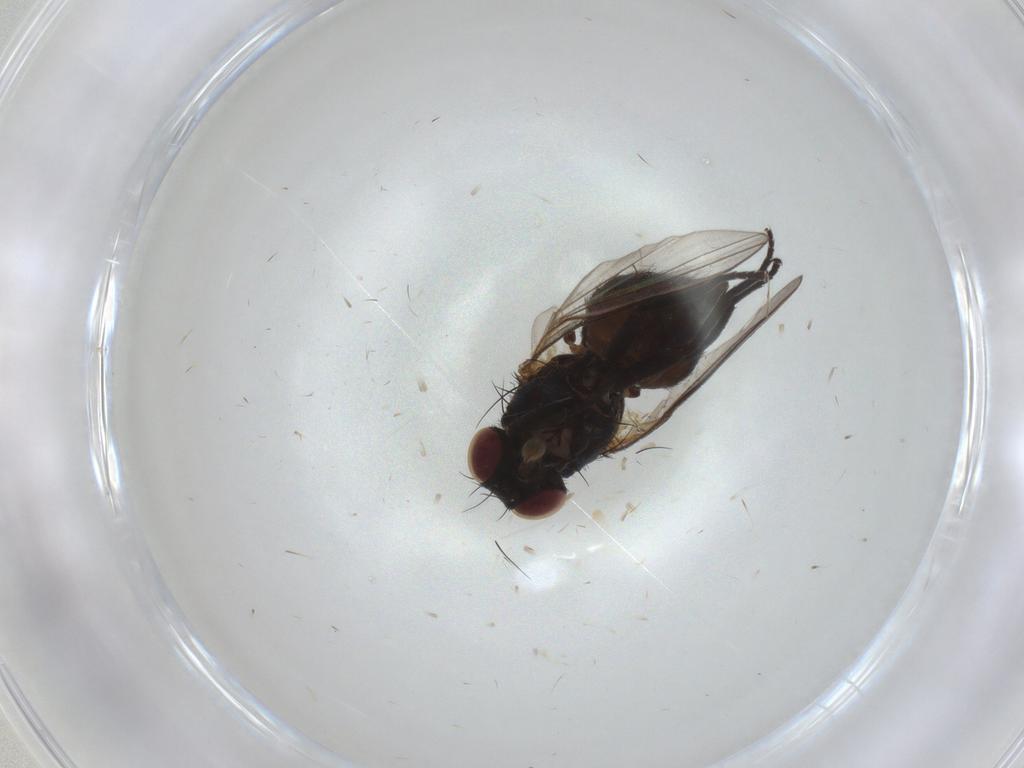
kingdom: Animalia
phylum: Arthropoda
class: Insecta
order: Diptera
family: Agromyzidae
